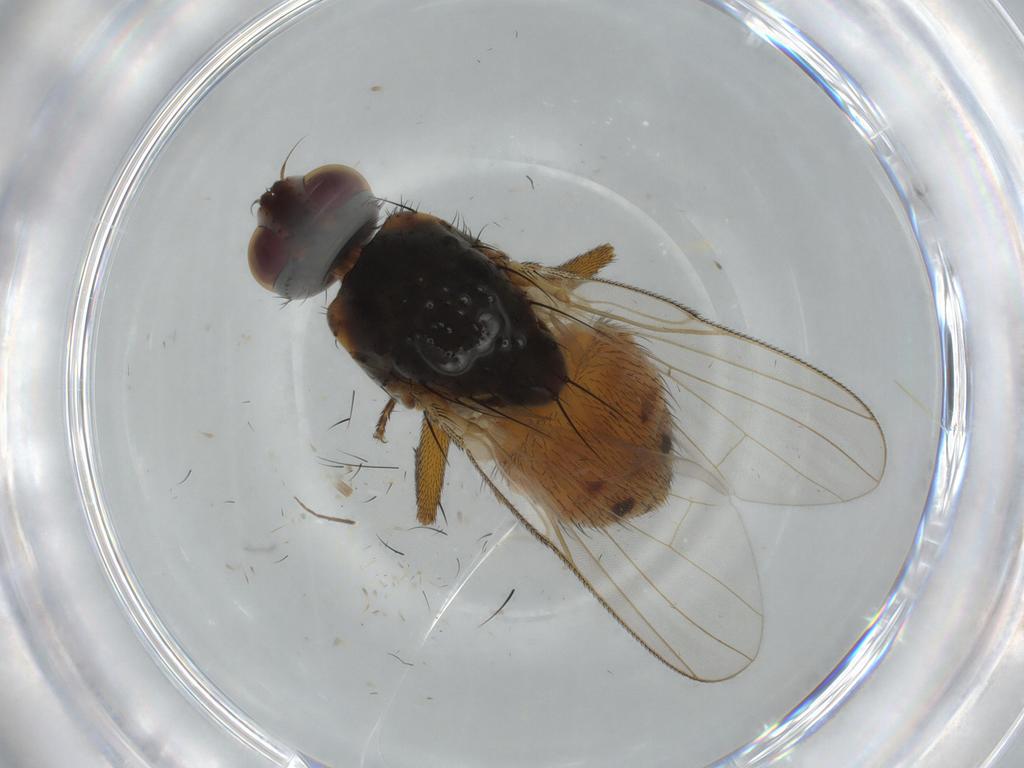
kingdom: Animalia
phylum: Arthropoda
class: Insecta
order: Diptera
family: Muscidae
